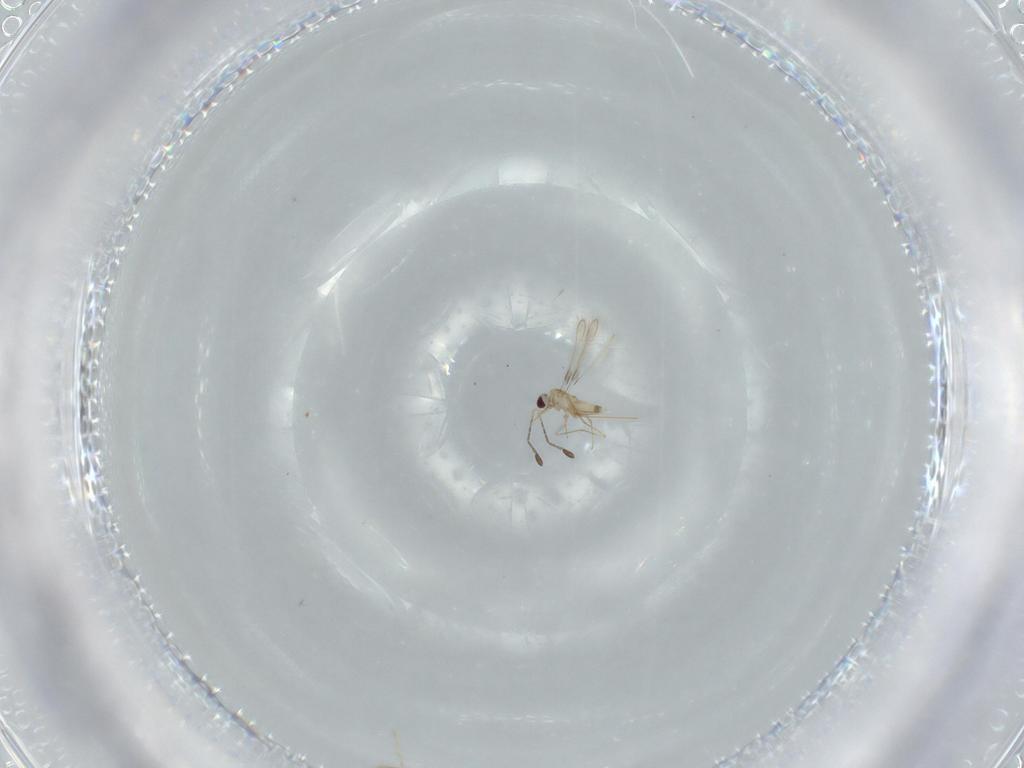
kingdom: Animalia
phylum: Arthropoda
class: Insecta
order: Hymenoptera
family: Mymaridae
